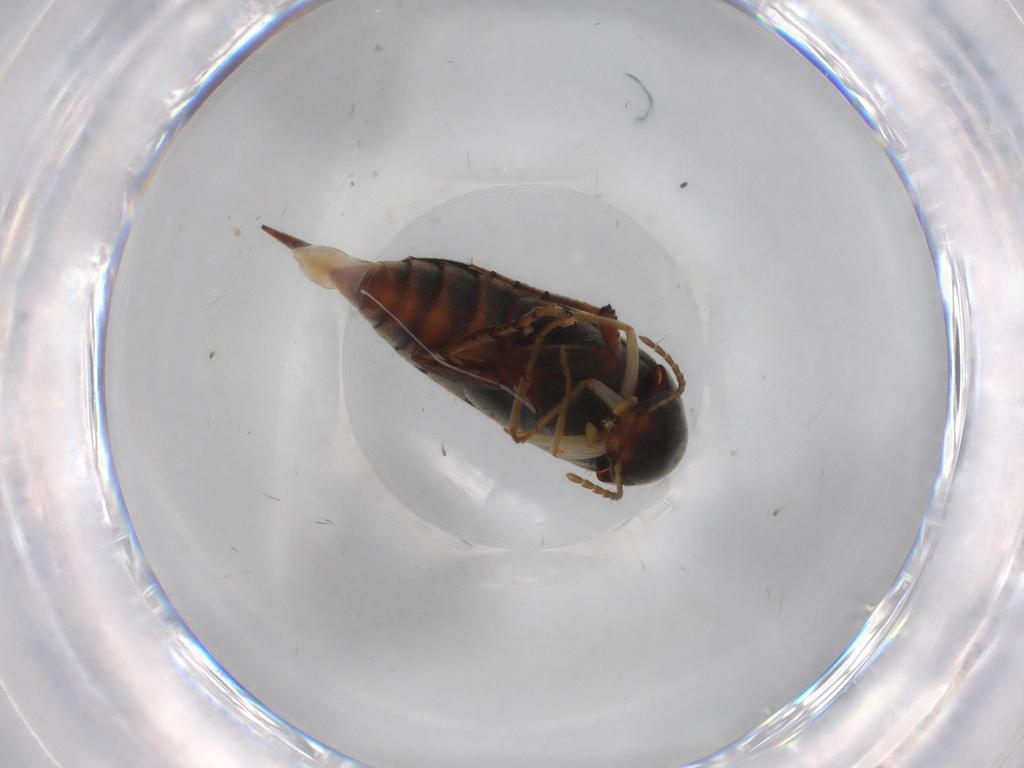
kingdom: Animalia
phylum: Arthropoda
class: Insecta
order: Coleoptera
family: Mordellidae
